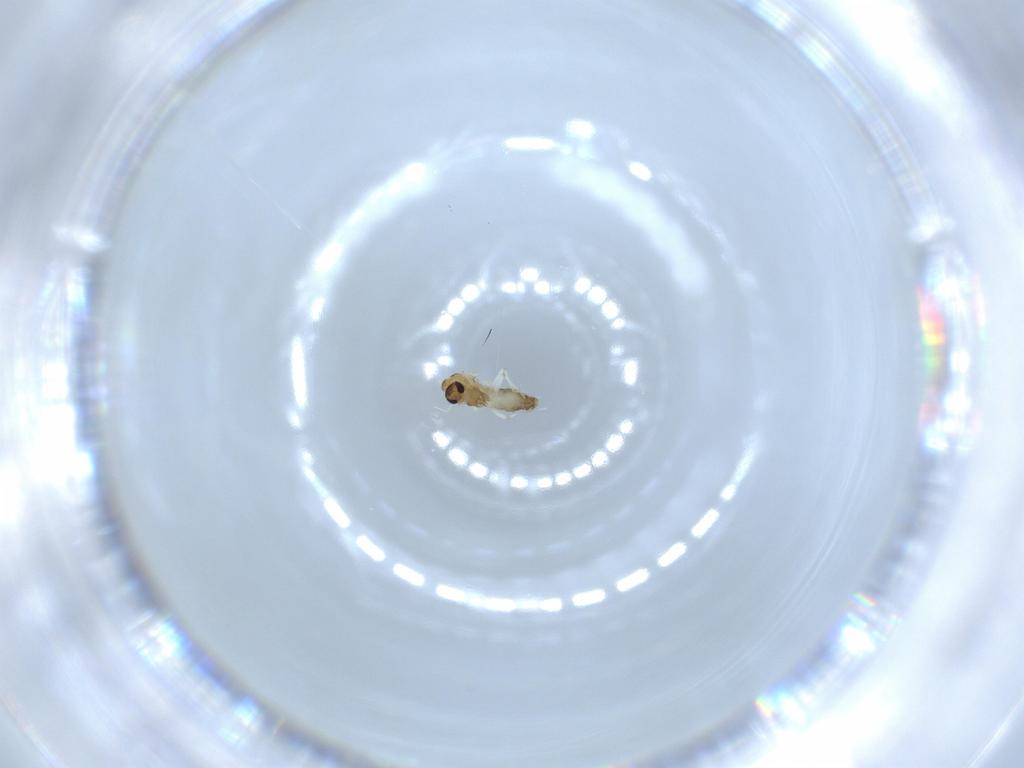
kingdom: Animalia
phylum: Arthropoda
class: Insecta
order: Diptera
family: Chironomidae
